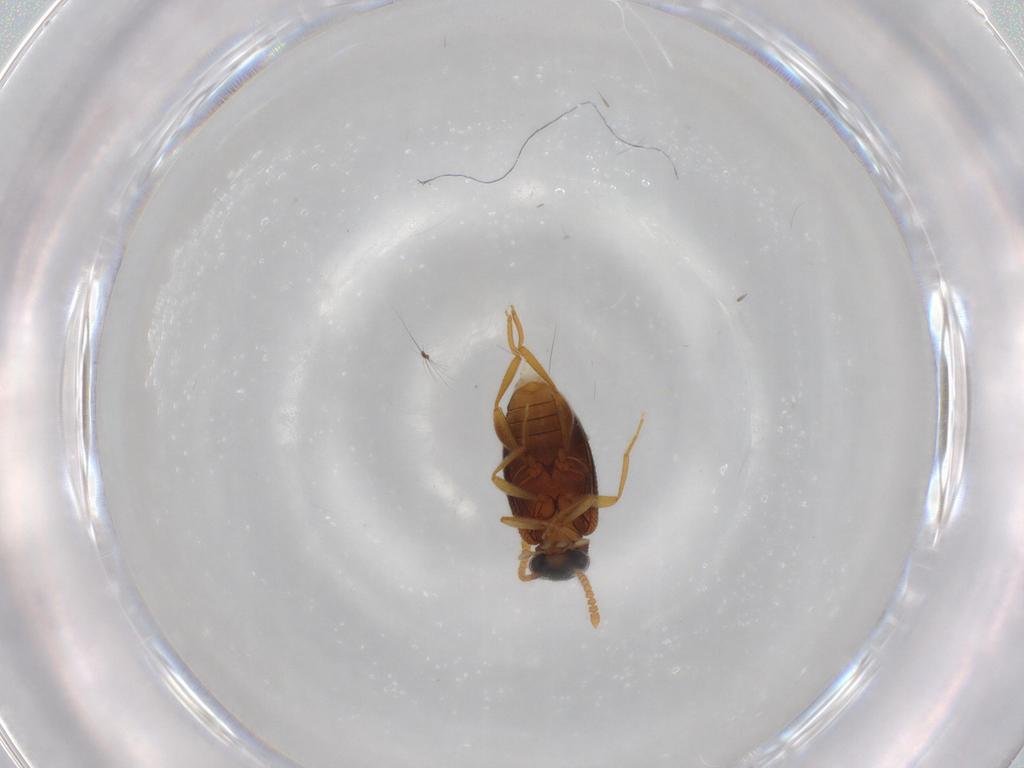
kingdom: Animalia
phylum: Arthropoda
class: Insecta
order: Coleoptera
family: Aderidae
